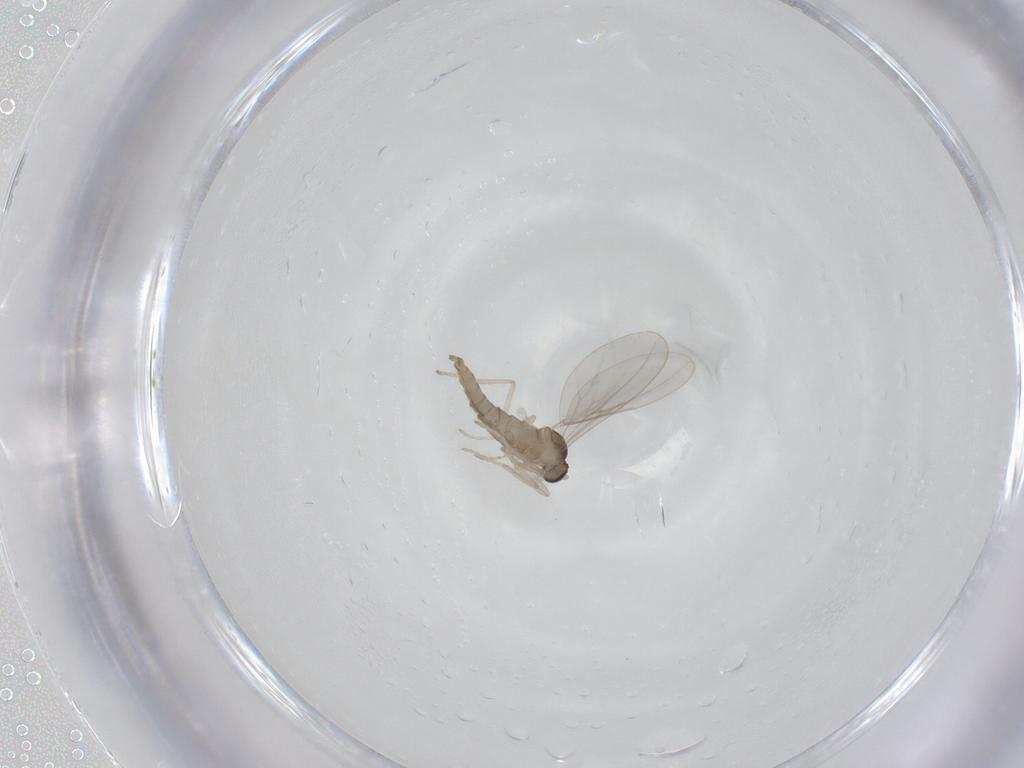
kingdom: Animalia
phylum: Arthropoda
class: Insecta
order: Diptera
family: Cecidomyiidae
